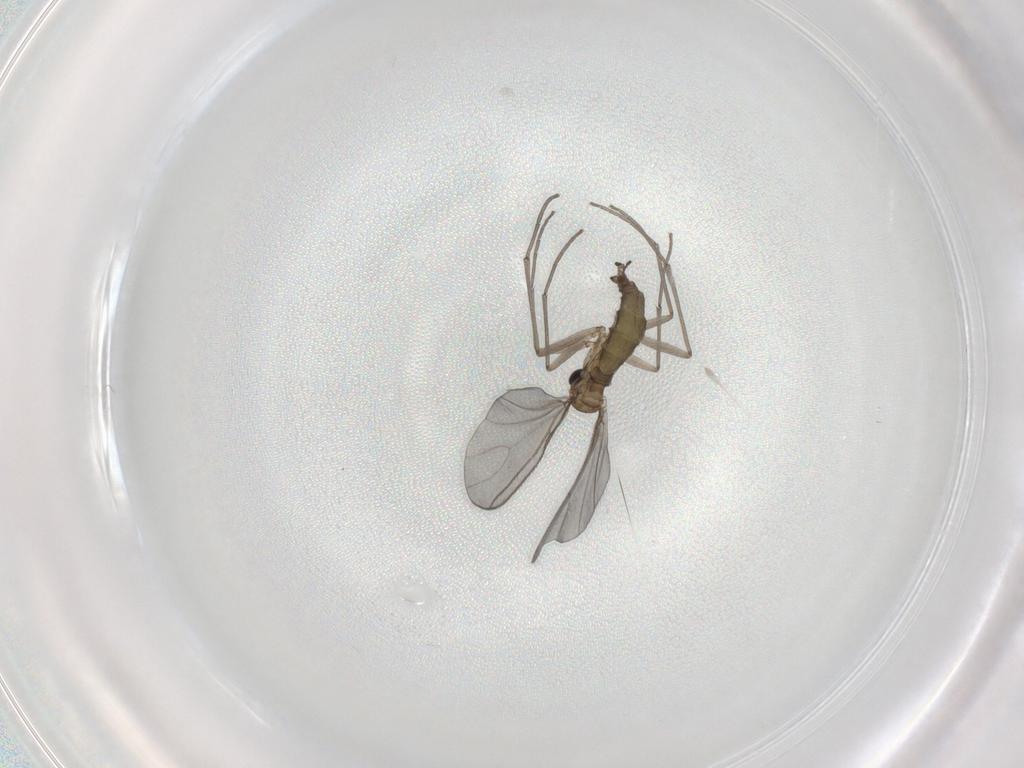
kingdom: Animalia
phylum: Arthropoda
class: Insecta
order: Diptera
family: Sciaridae
